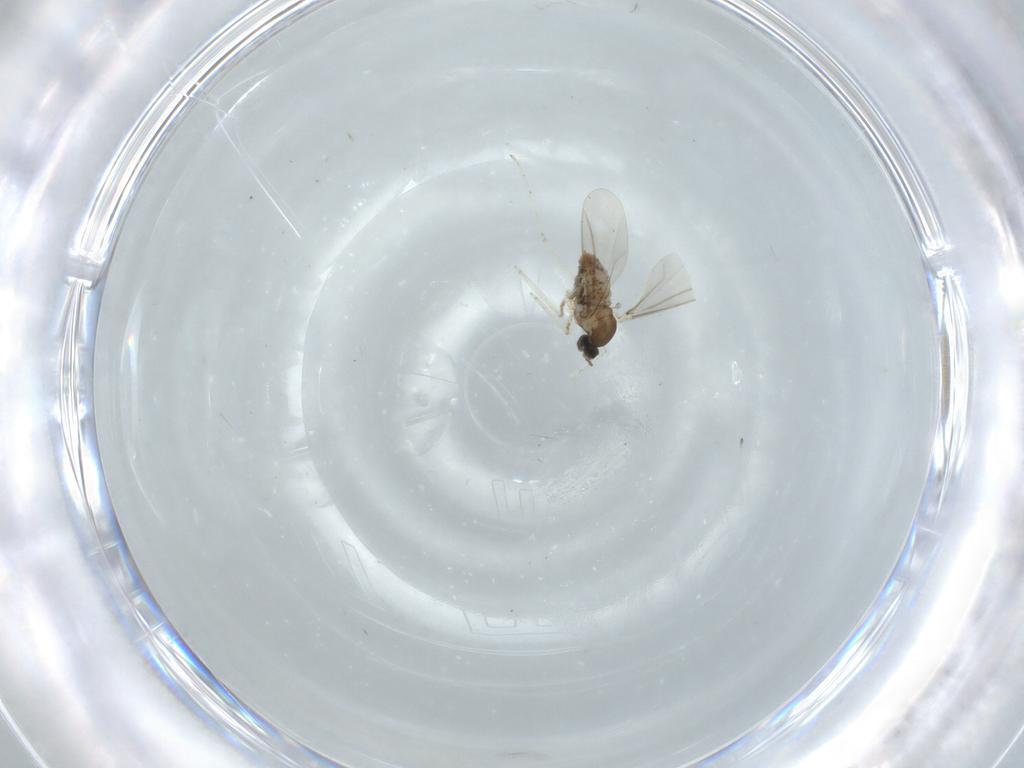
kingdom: Animalia
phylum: Arthropoda
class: Insecta
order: Diptera
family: Cecidomyiidae
